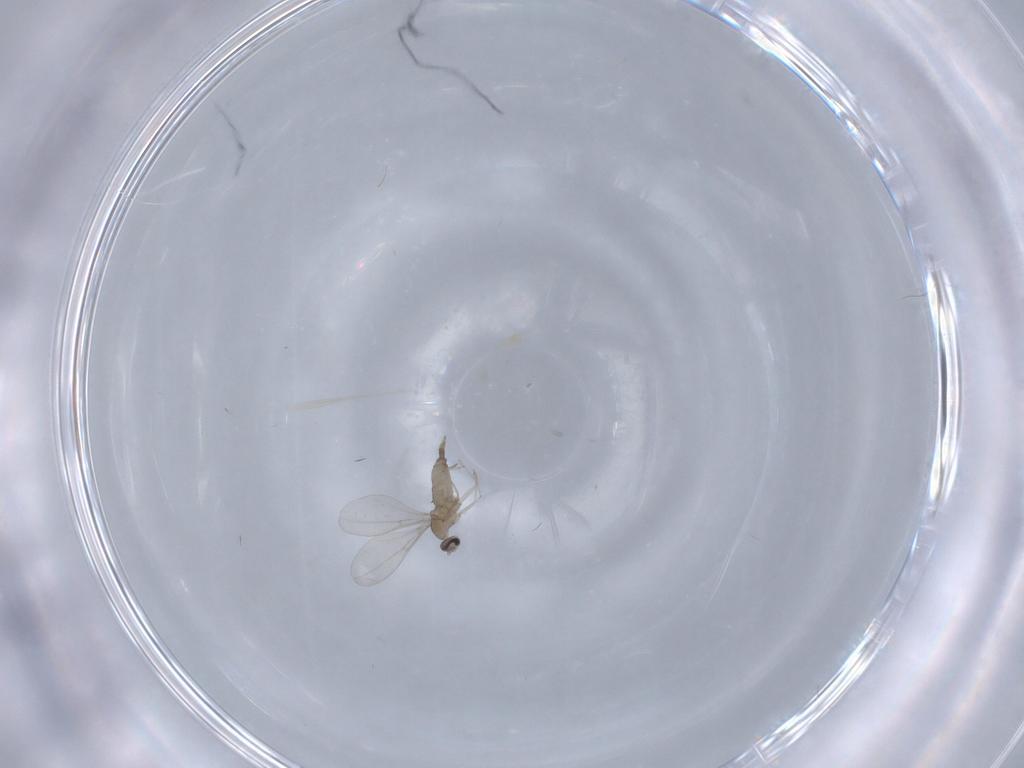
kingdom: Animalia
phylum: Arthropoda
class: Insecta
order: Diptera
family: Cecidomyiidae
